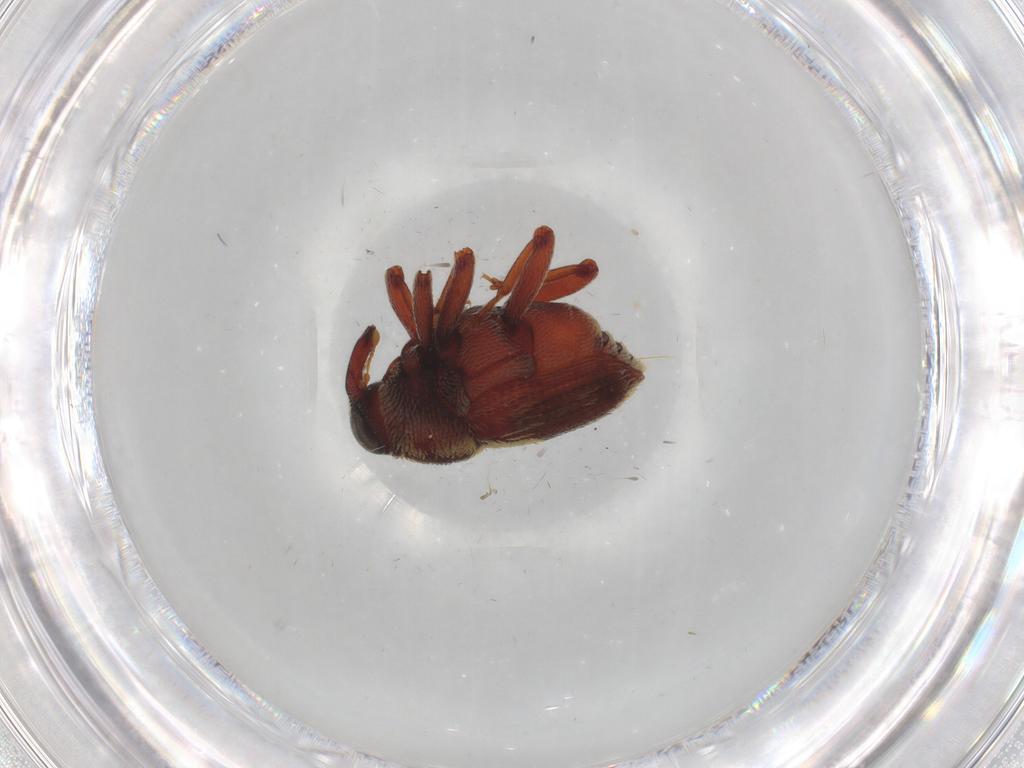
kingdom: Animalia
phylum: Arthropoda
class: Insecta
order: Coleoptera
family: Curculionidae
